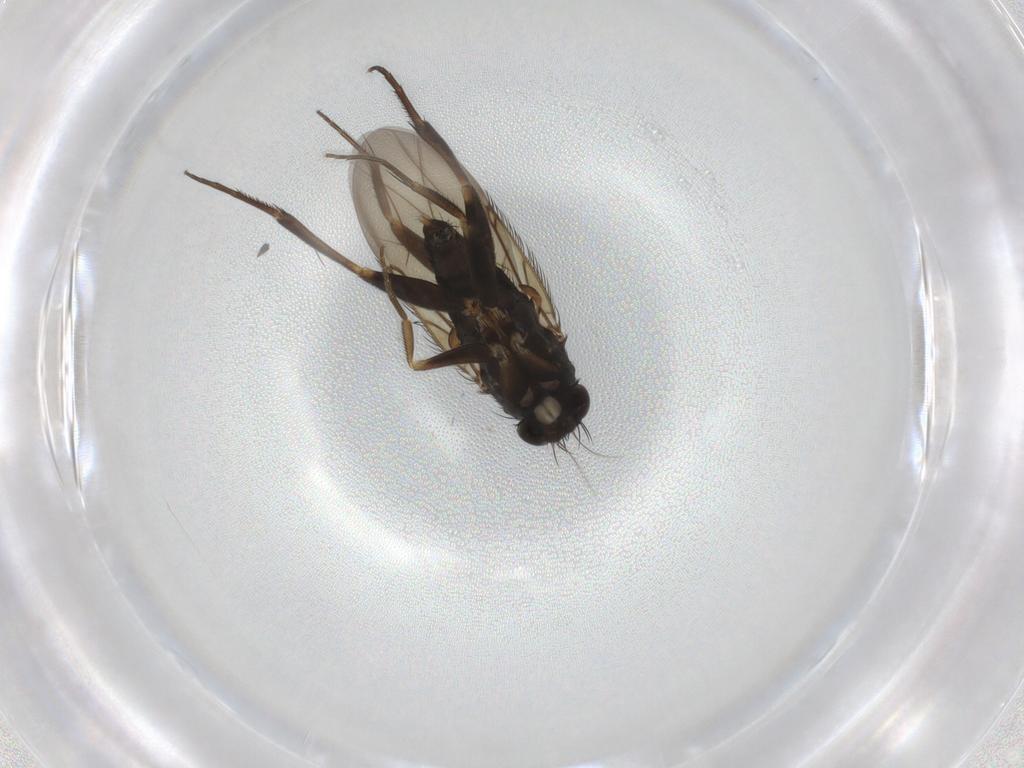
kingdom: Animalia
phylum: Arthropoda
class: Insecta
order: Diptera
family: Phoridae
